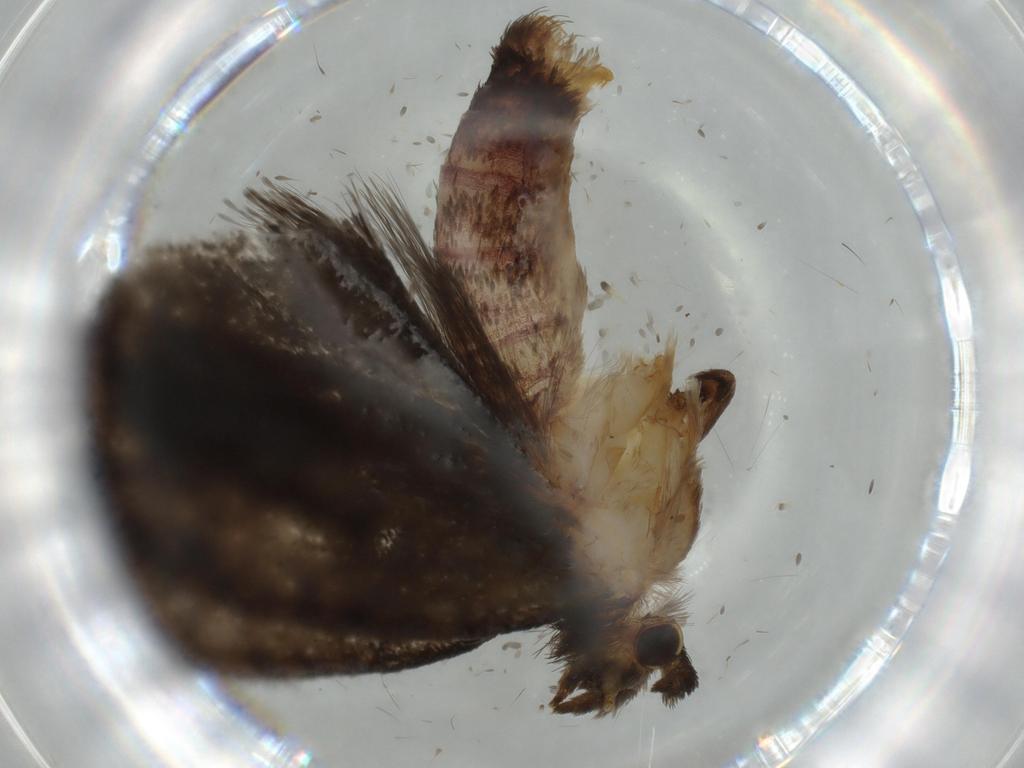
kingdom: Animalia
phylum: Arthropoda
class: Insecta
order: Lepidoptera
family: Tineidae
